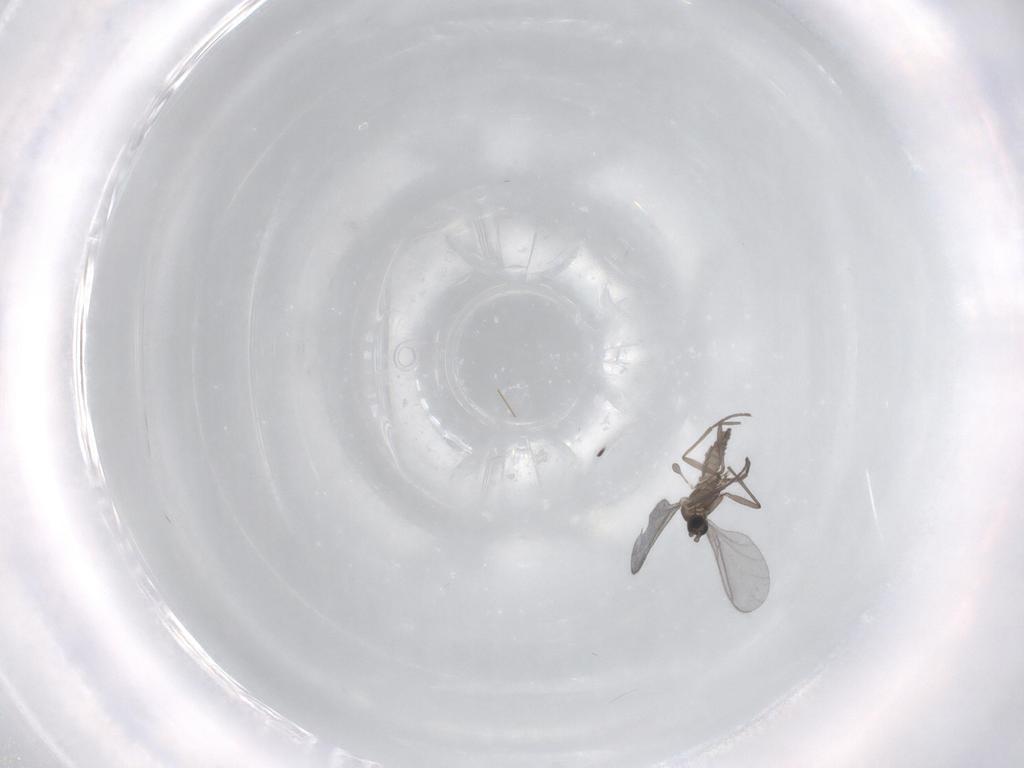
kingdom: Animalia
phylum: Arthropoda
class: Insecta
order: Diptera
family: Sciaridae
